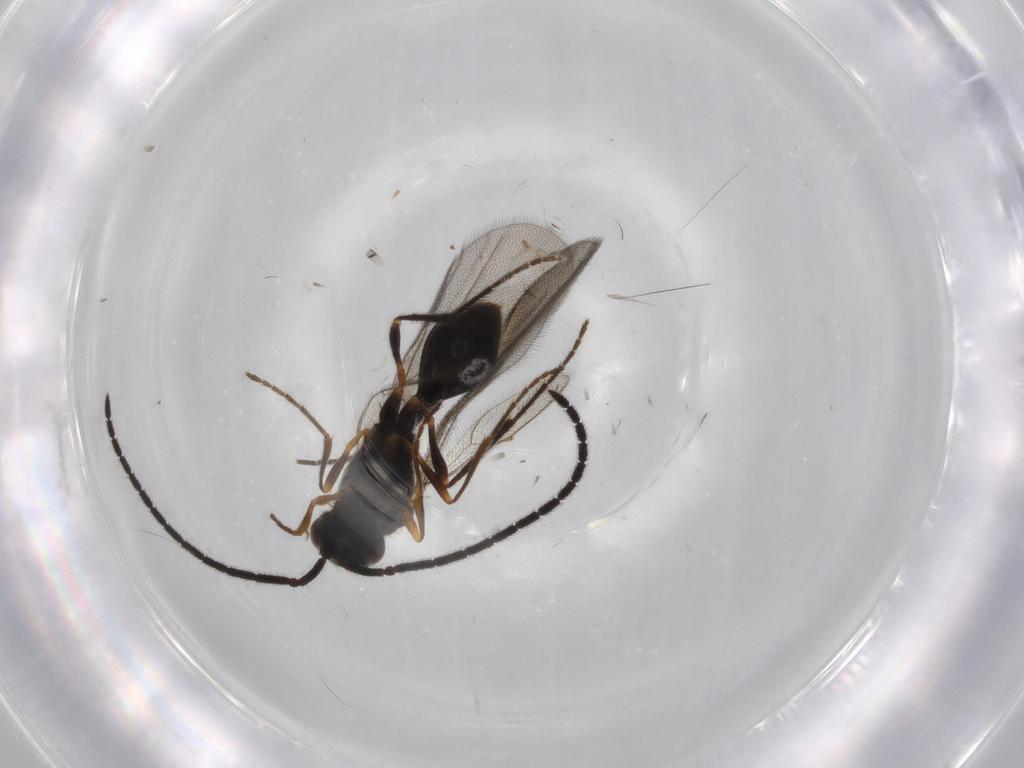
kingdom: Animalia
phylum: Arthropoda
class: Insecta
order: Hymenoptera
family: Diapriidae
